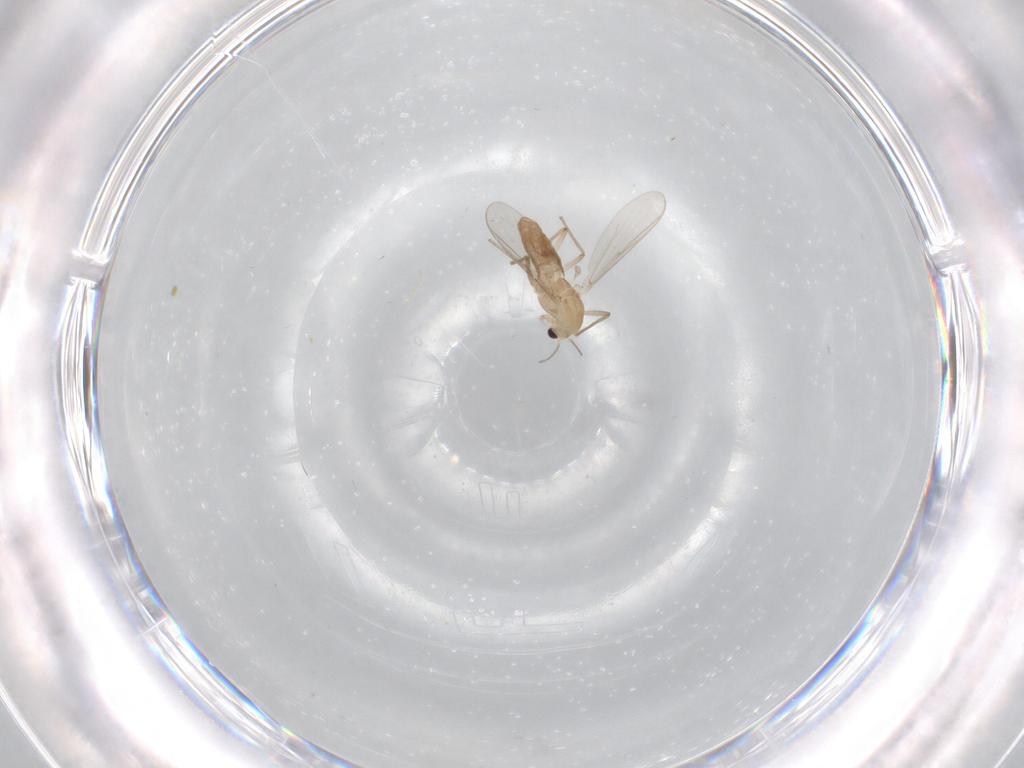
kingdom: Animalia
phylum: Arthropoda
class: Insecta
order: Diptera
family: Chironomidae
